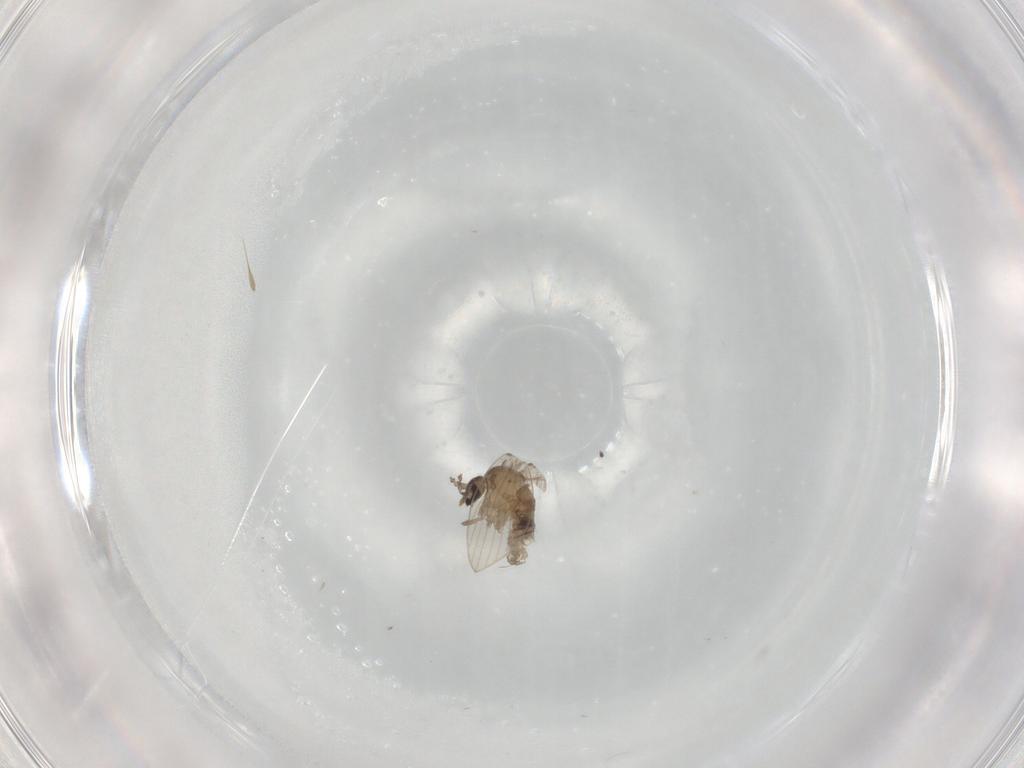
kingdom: Animalia
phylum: Arthropoda
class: Insecta
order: Diptera
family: Psychodidae
